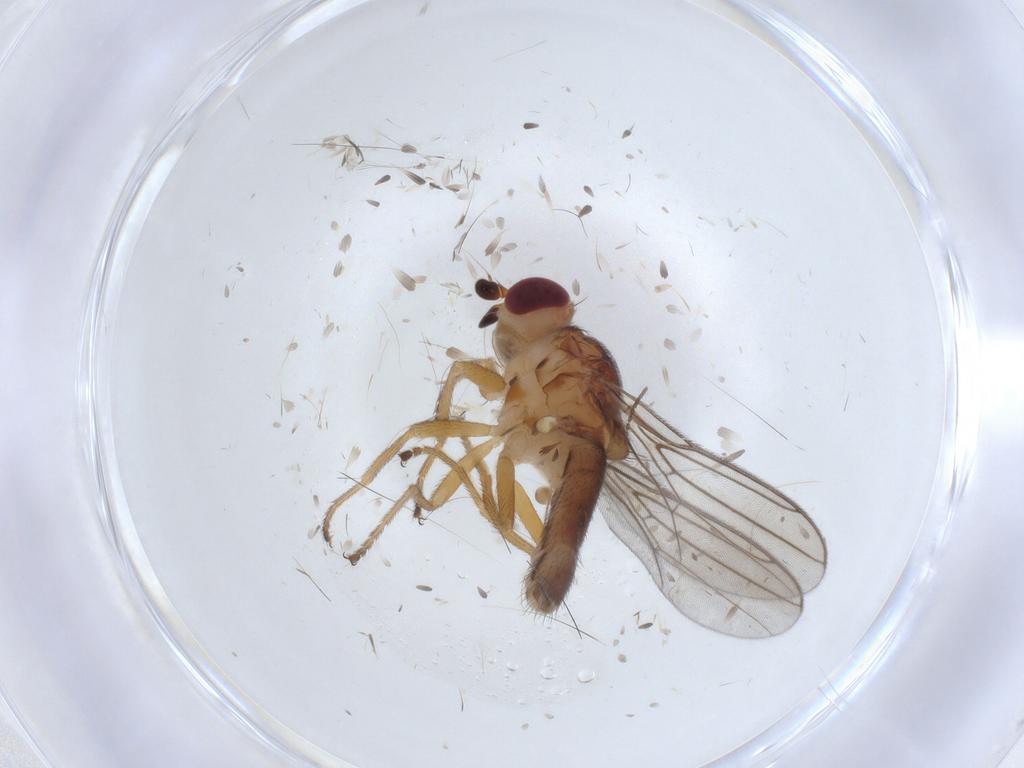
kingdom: Animalia
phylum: Arthropoda
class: Insecta
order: Diptera
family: Chloropidae
